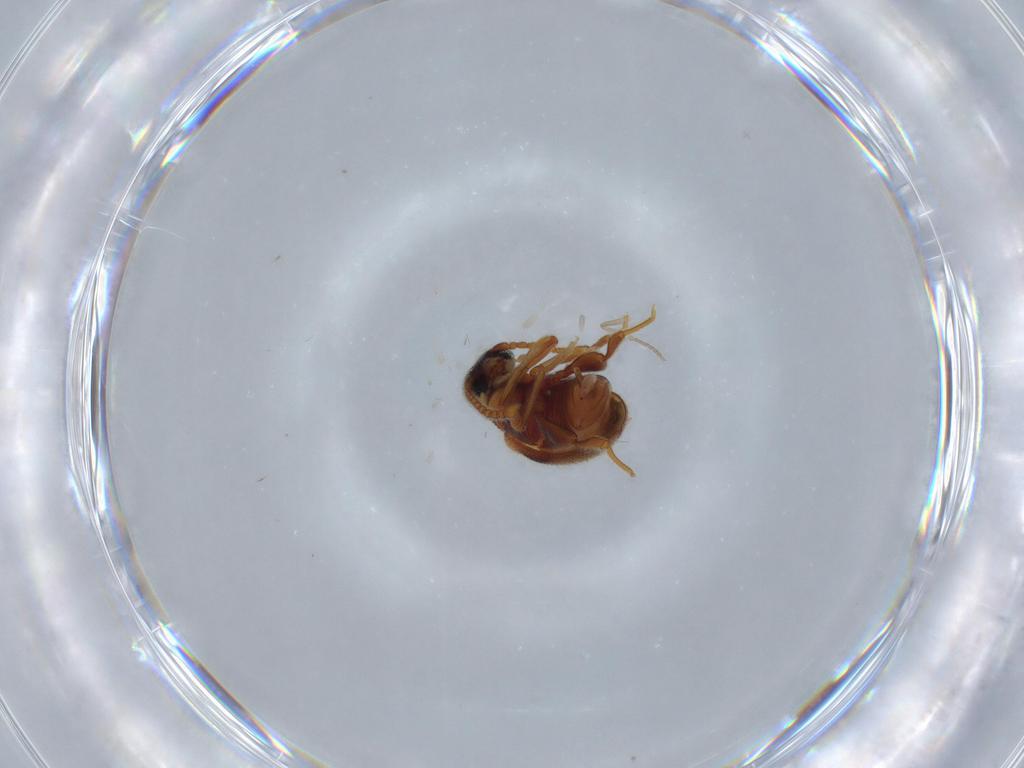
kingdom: Animalia
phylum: Arthropoda
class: Insecta
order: Coleoptera
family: Aderidae
